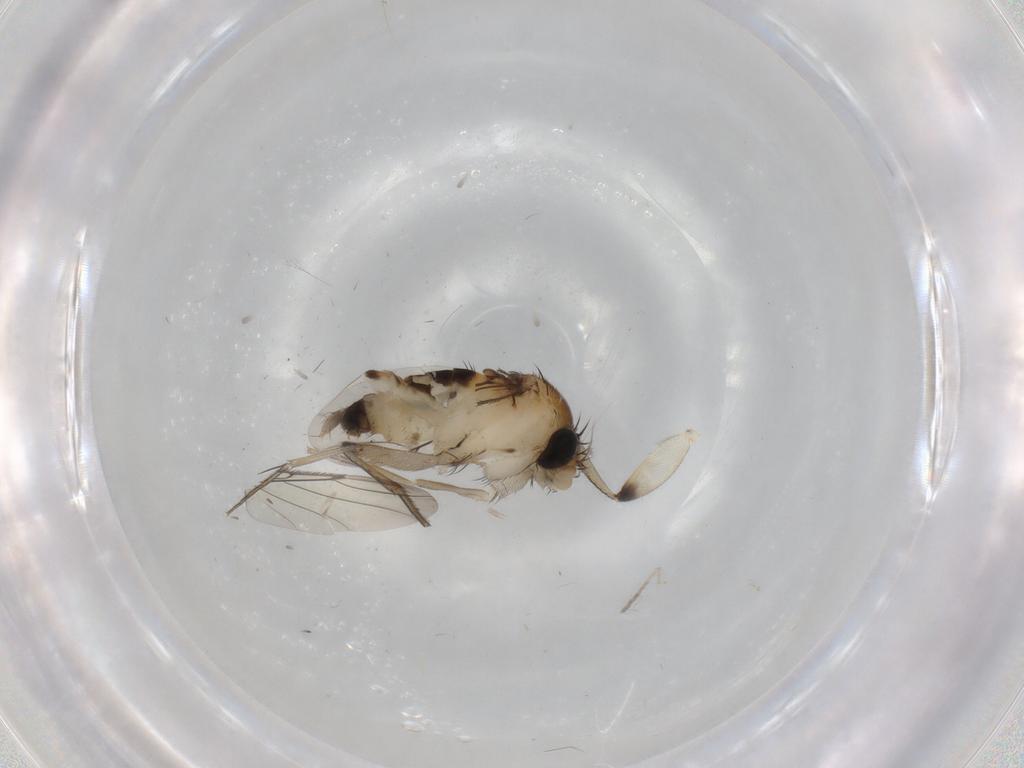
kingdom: Animalia
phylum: Arthropoda
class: Insecta
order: Diptera
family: Phoridae
